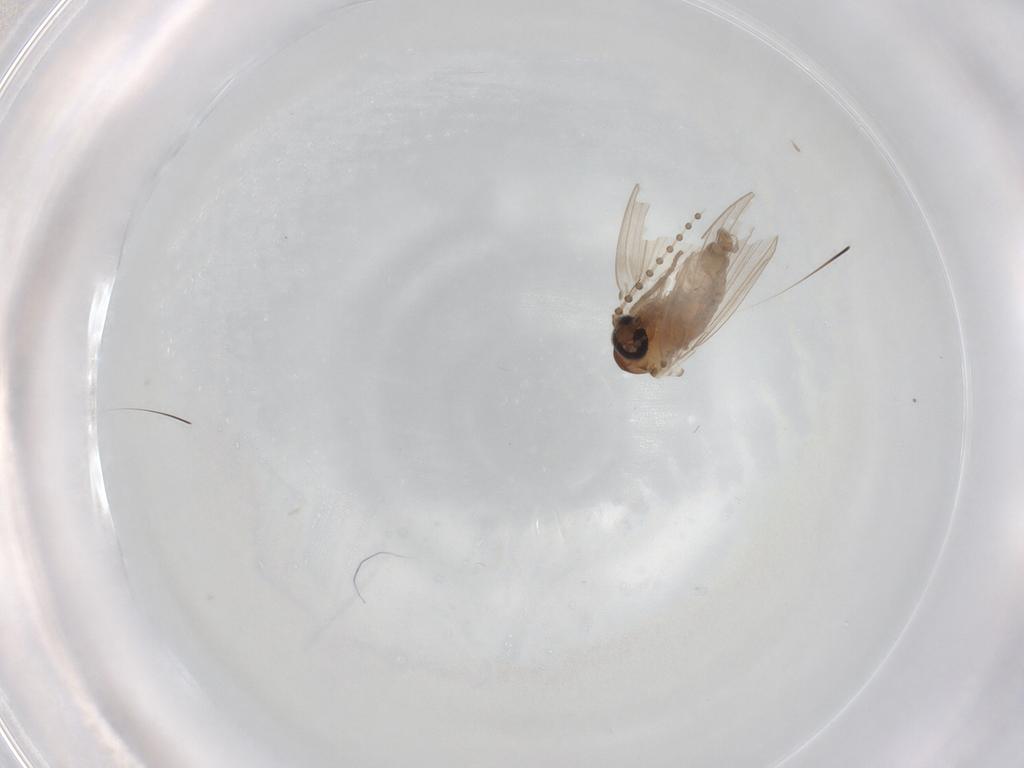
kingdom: Animalia
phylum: Arthropoda
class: Insecta
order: Diptera
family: Psychodidae
